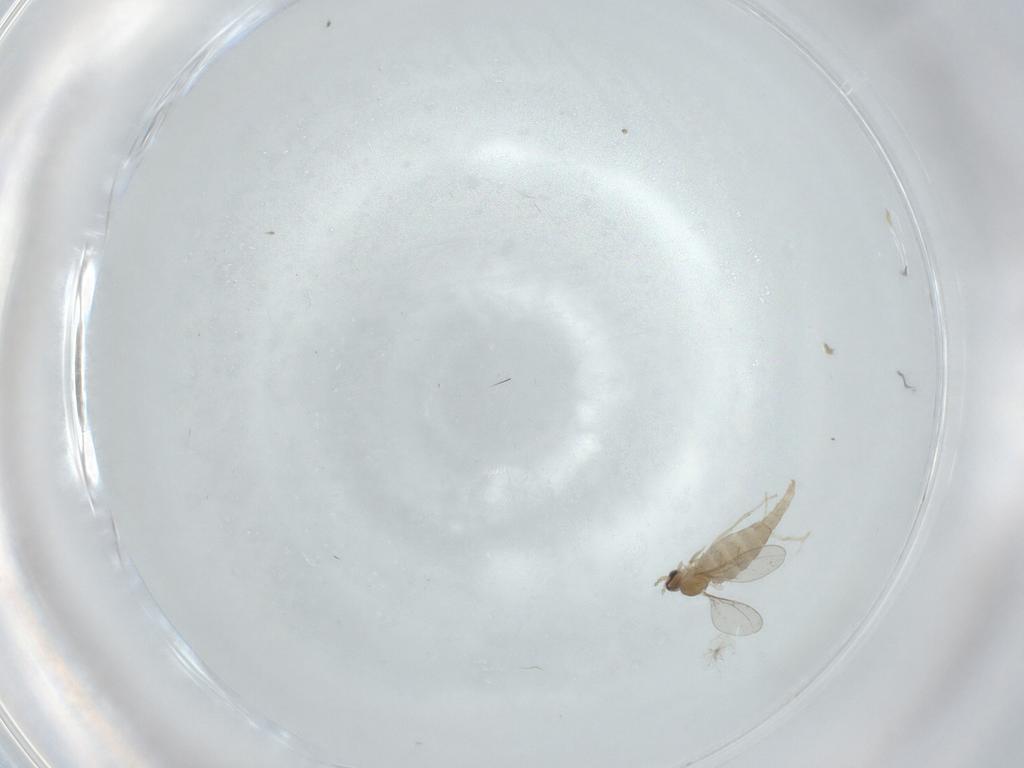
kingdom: Animalia
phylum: Arthropoda
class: Insecta
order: Diptera
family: Cecidomyiidae
